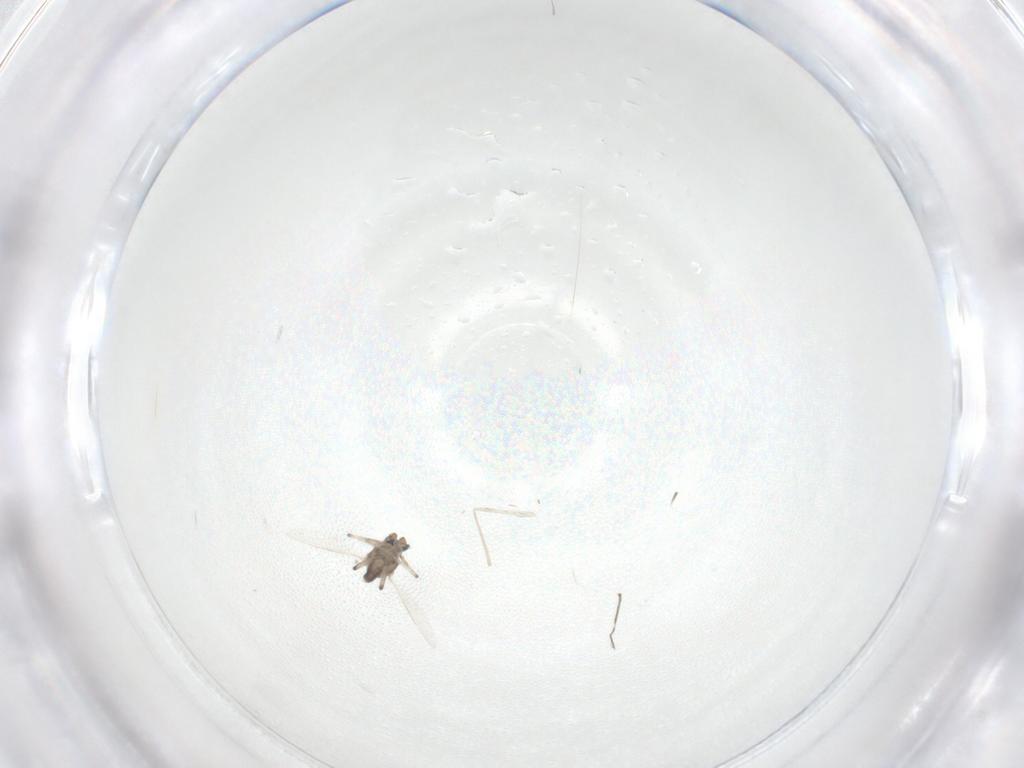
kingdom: Animalia
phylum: Arthropoda
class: Insecta
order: Diptera
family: Cecidomyiidae
